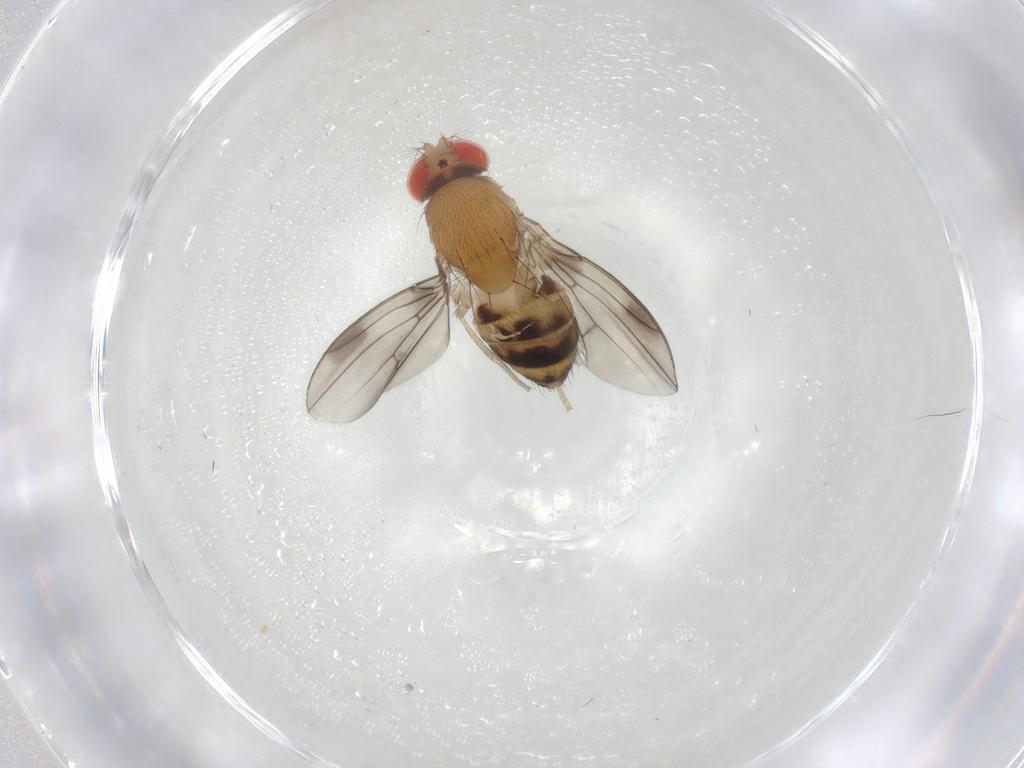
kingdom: Animalia
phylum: Arthropoda
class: Insecta
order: Diptera
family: Drosophilidae
